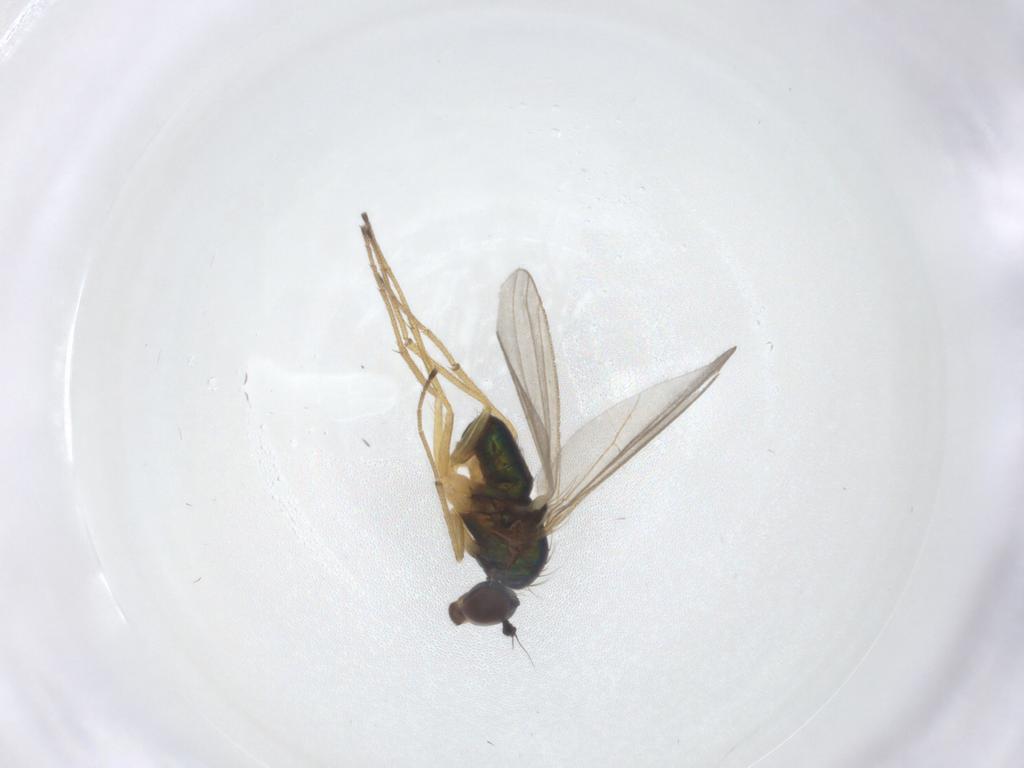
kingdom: Animalia
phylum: Arthropoda
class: Insecta
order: Diptera
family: Dolichopodidae
